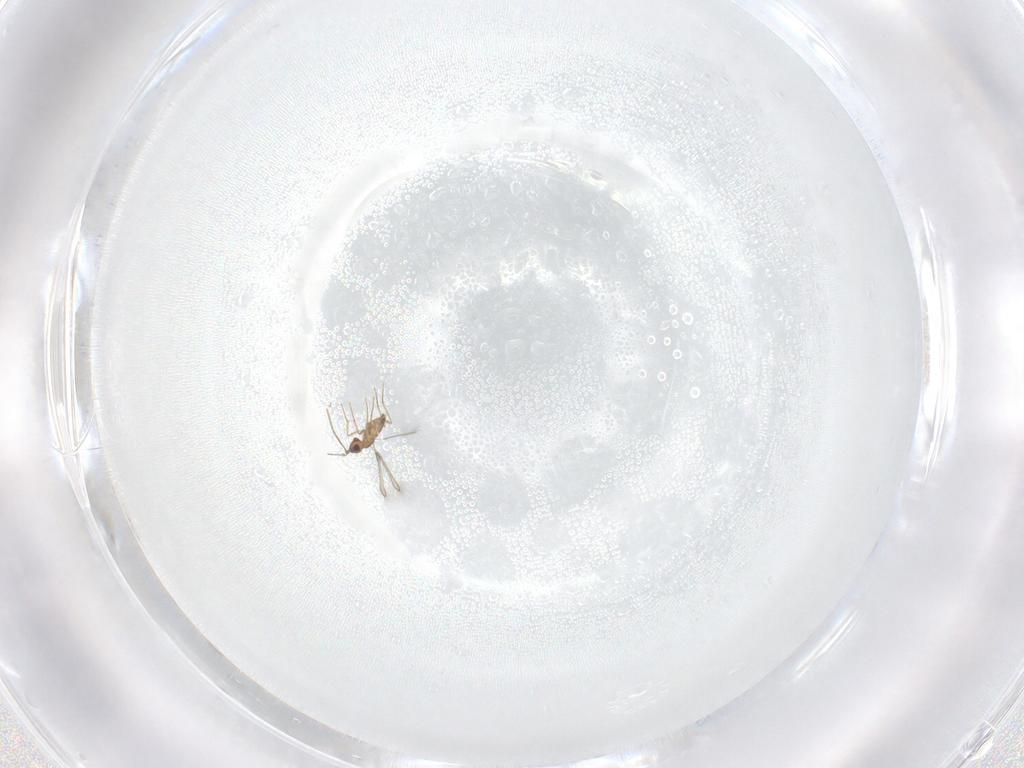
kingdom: Animalia
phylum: Arthropoda
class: Insecta
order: Hymenoptera
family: Mymaridae
